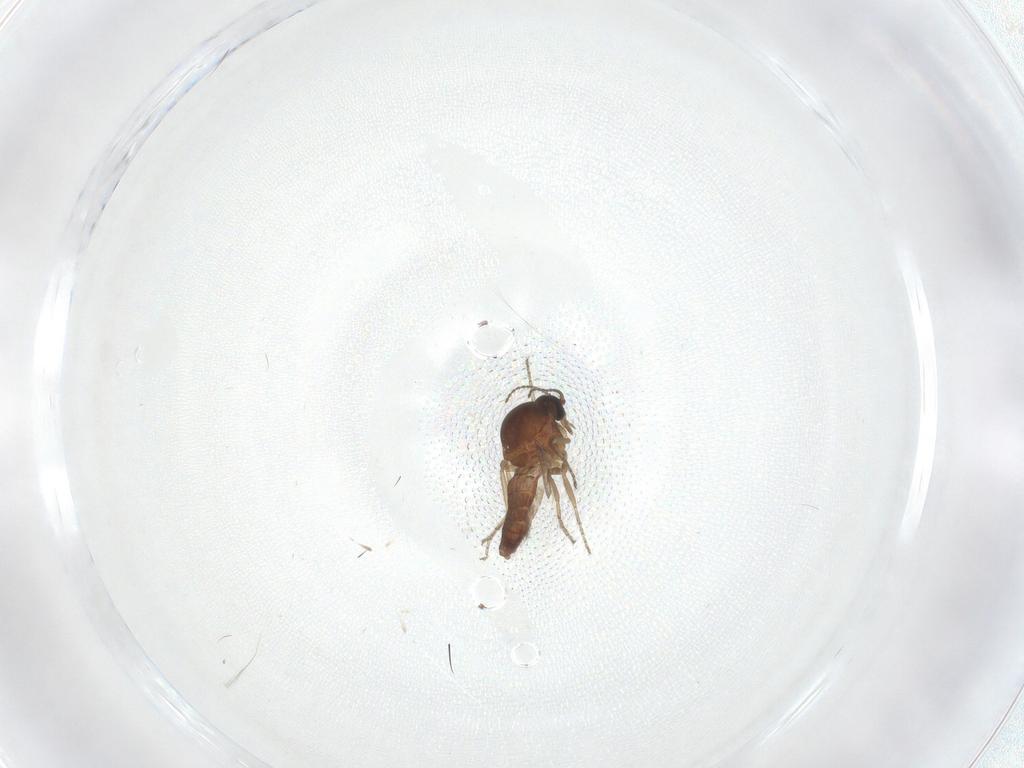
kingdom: Animalia
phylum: Arthropoda
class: Insecta
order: Diptera
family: Ceratopogonidae
